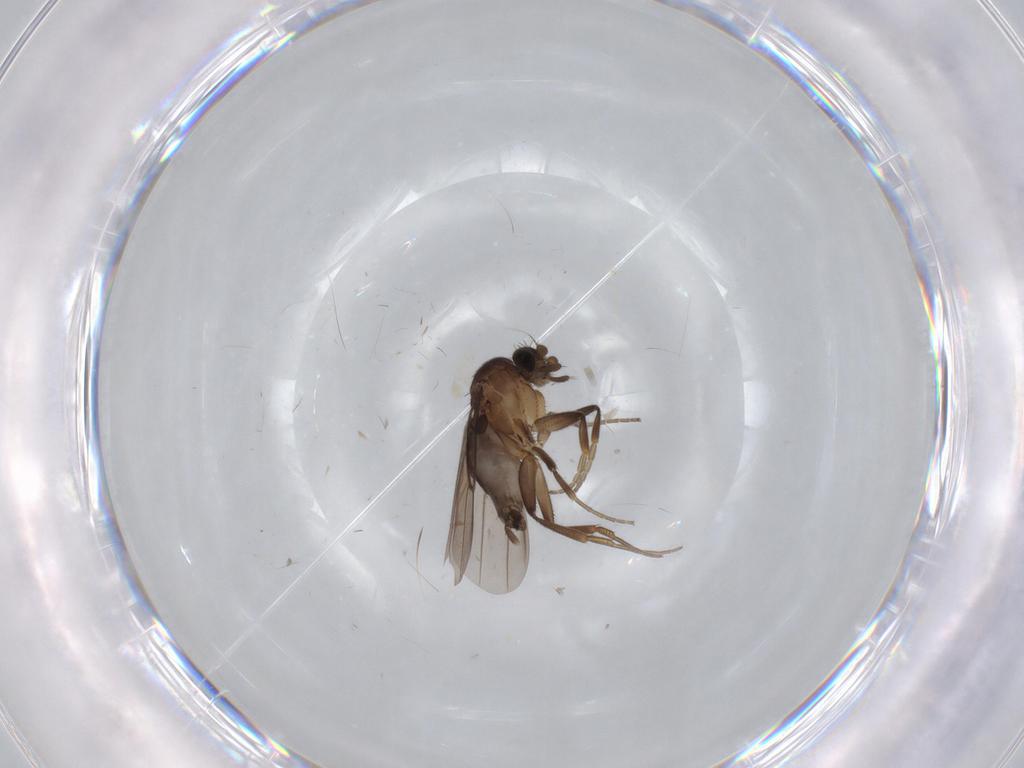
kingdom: Animalia
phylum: Arthropoda
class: Insecta
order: Diptera
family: Phoridae
